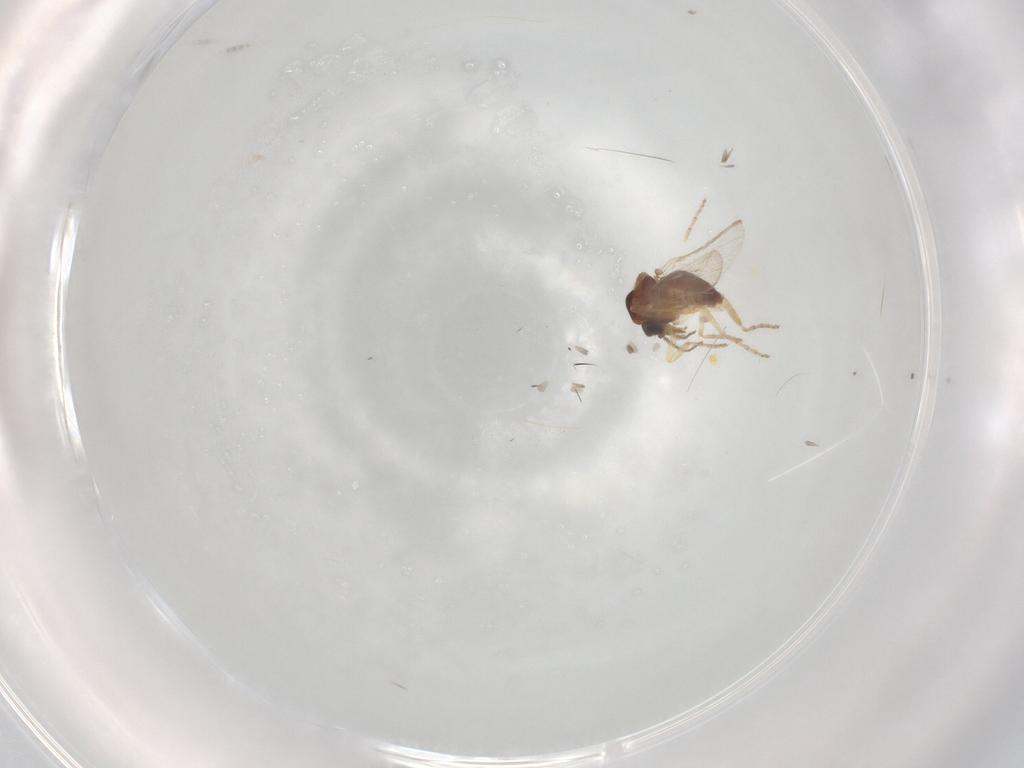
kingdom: Animalia
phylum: Arthropoda
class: Insecta
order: Diptera
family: Ceratopogonidae
